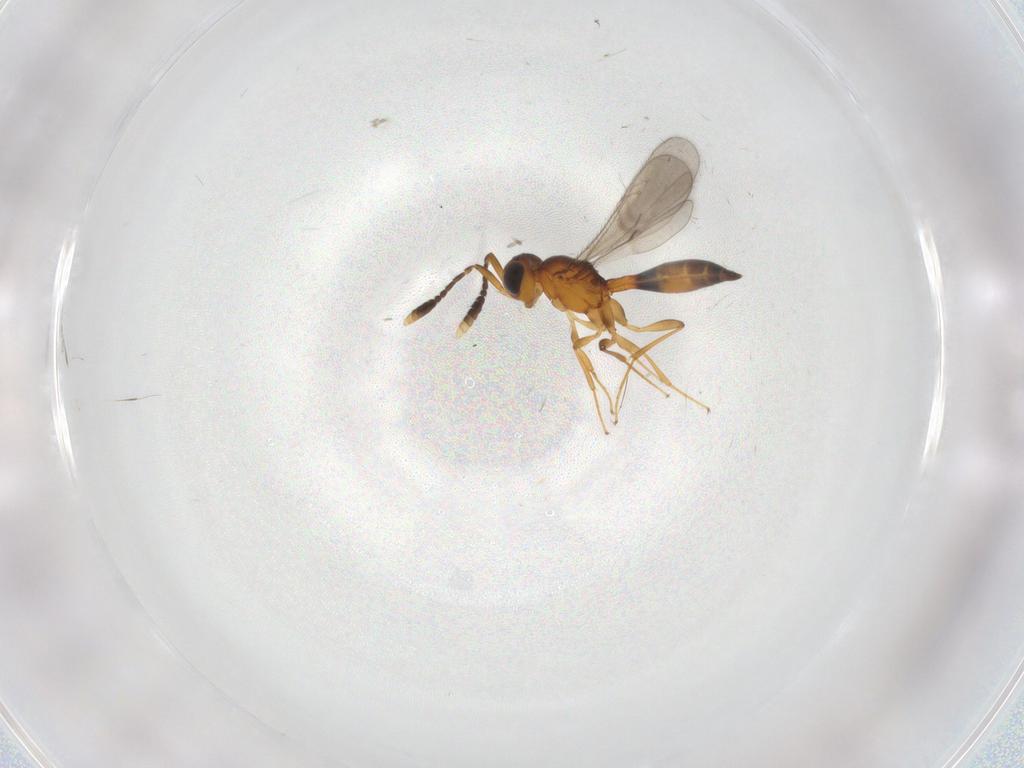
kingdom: Animalia
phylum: Arthropoda
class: Insecta
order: Hymenoptera
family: Scelionidae
